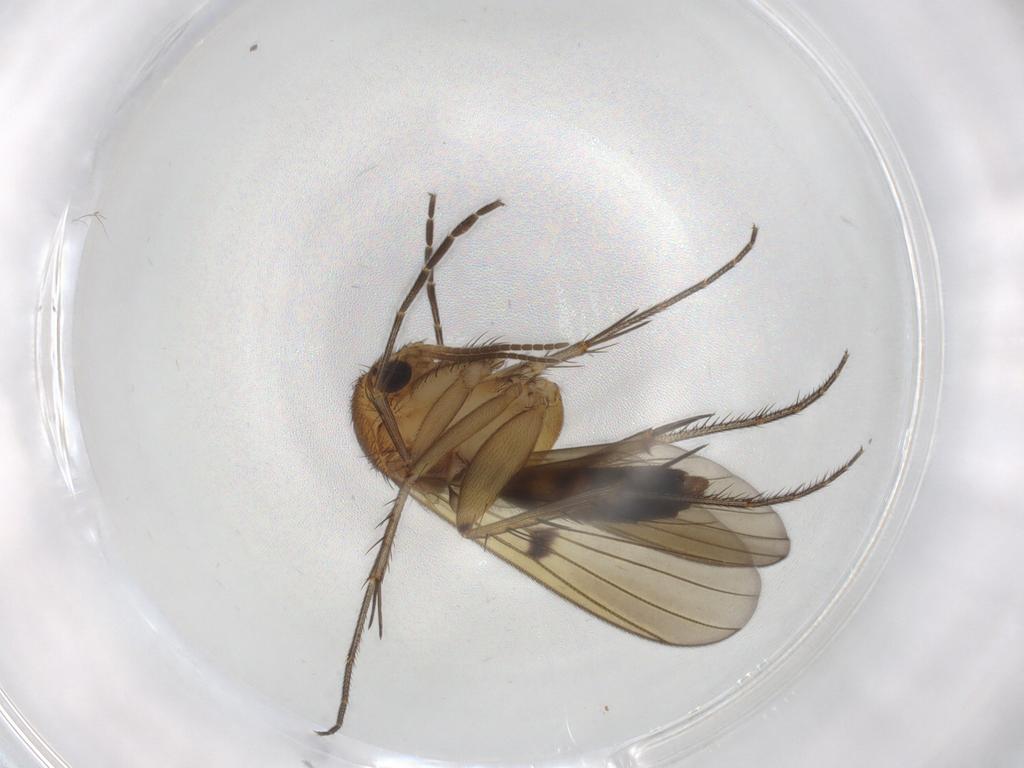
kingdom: Animalia
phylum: Arthropoda
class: Insecta
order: Diptera
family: Mycetophilidae
